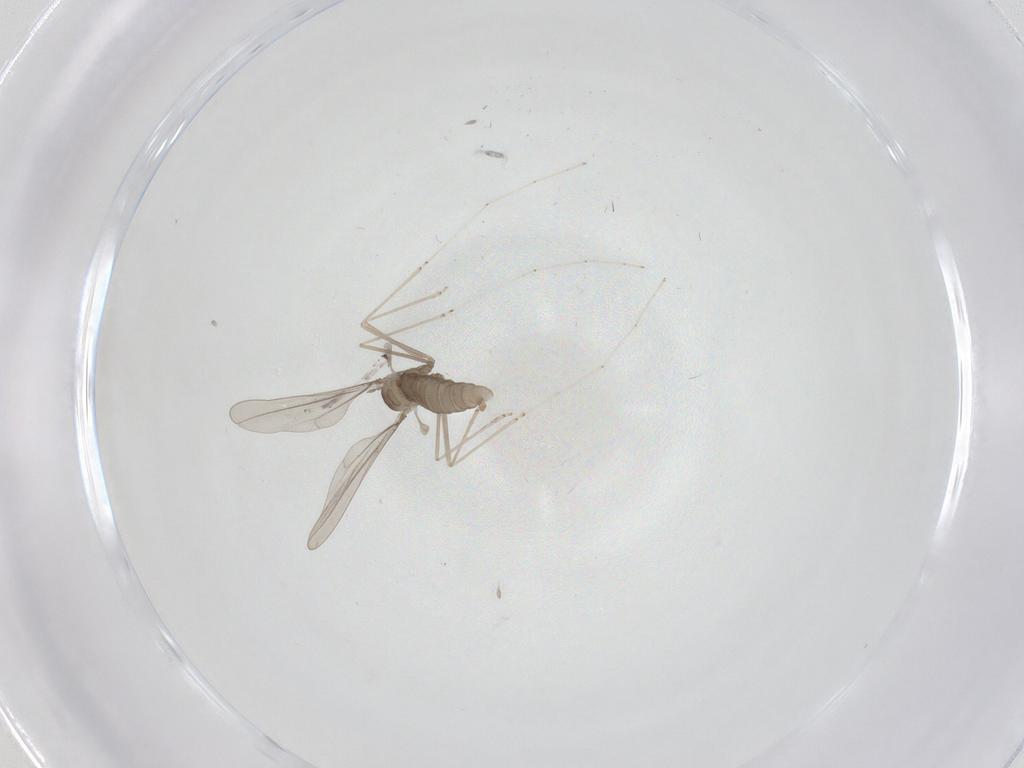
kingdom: Animalia
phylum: Arthropoda
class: Insecta
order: Diptera
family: Cecidomyiidae
